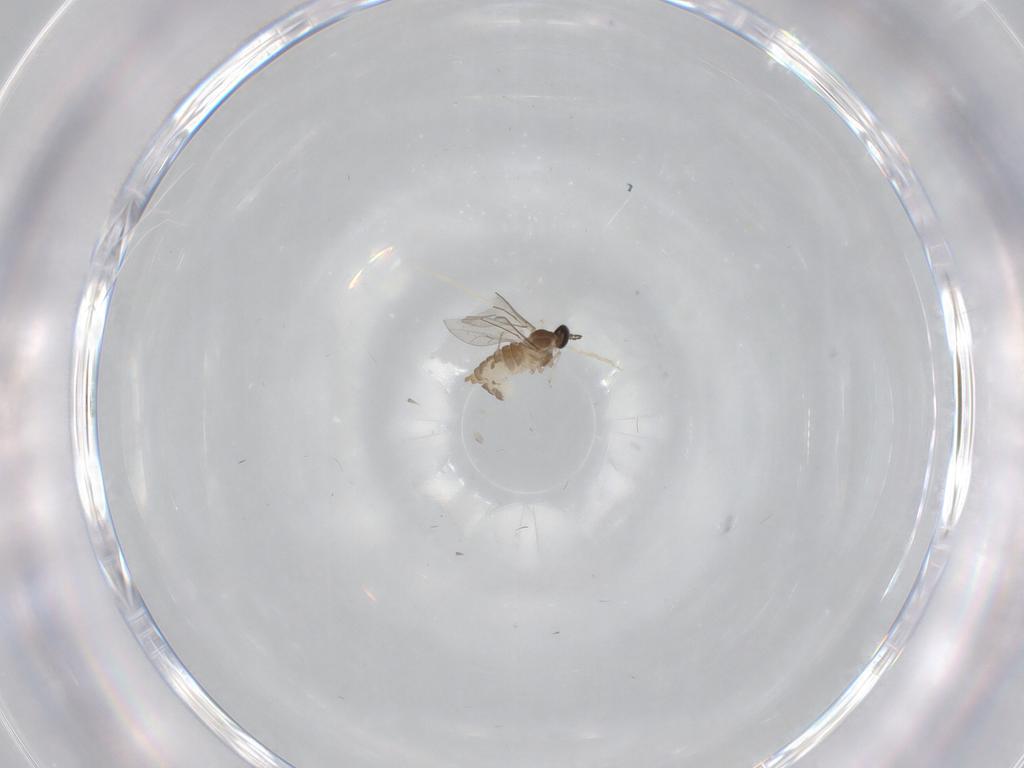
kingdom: Animalia
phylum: Arthropoda
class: Insecta
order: Diptera
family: Cecidomyiidae
